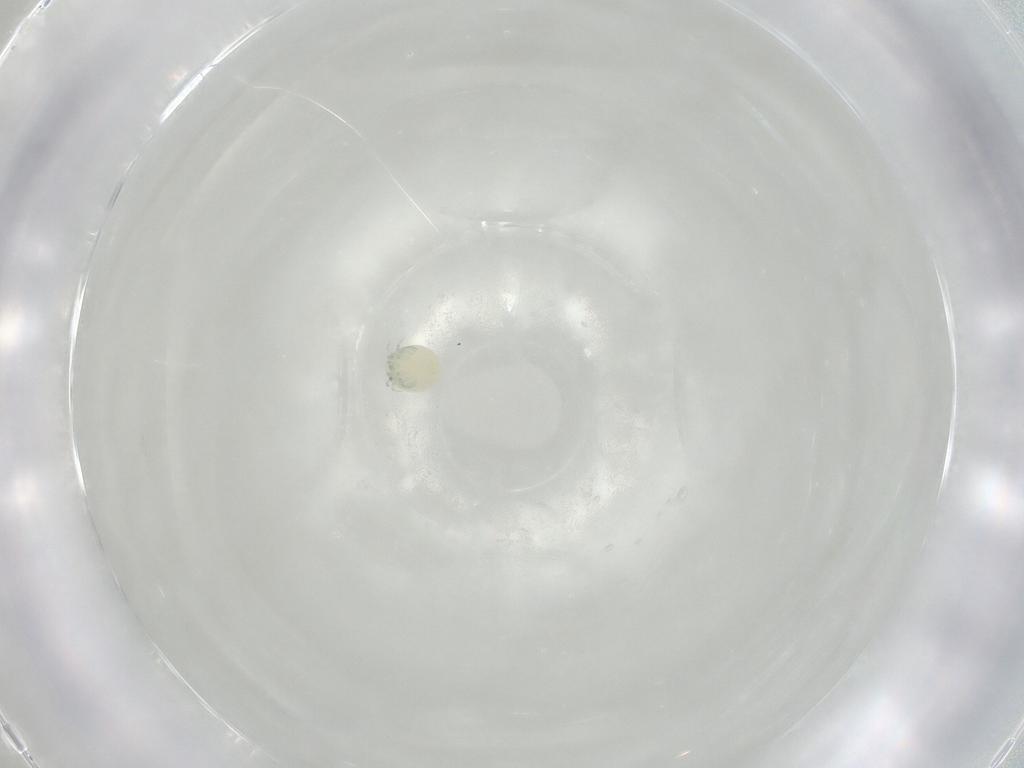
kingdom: Animalia
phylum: Arthropoda
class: Arachnida
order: Trombidiformes
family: Arrenuridae
